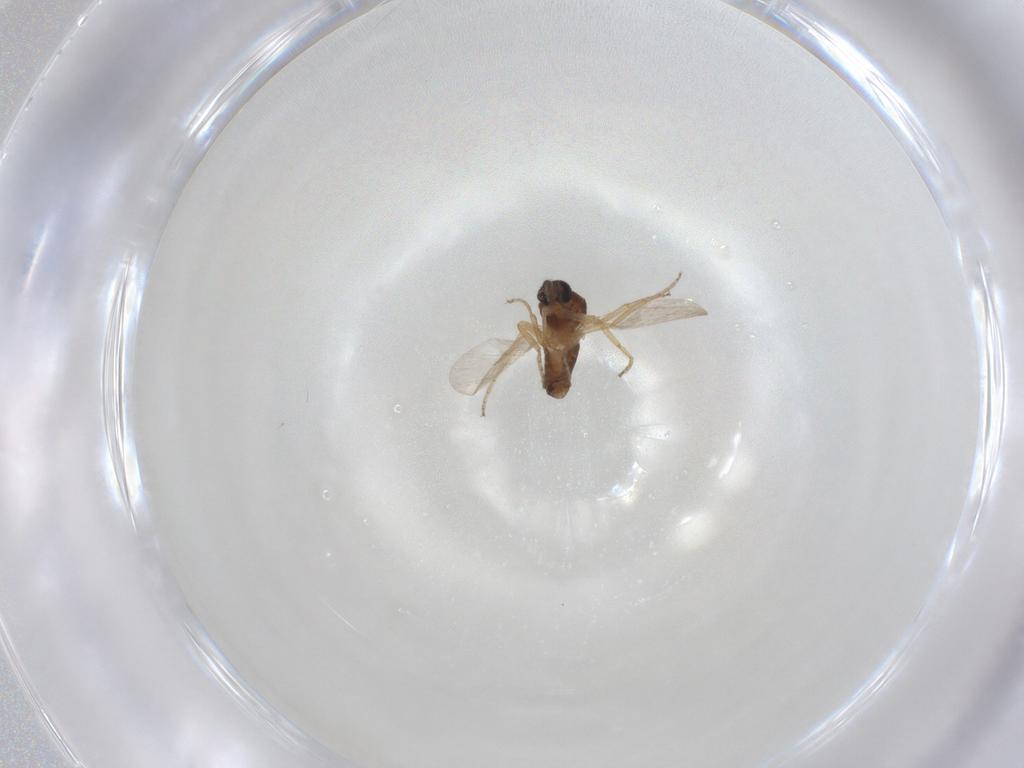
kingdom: Animalia
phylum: Arthropoda
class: Insecta
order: Diptera
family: Ceratopogonidae
